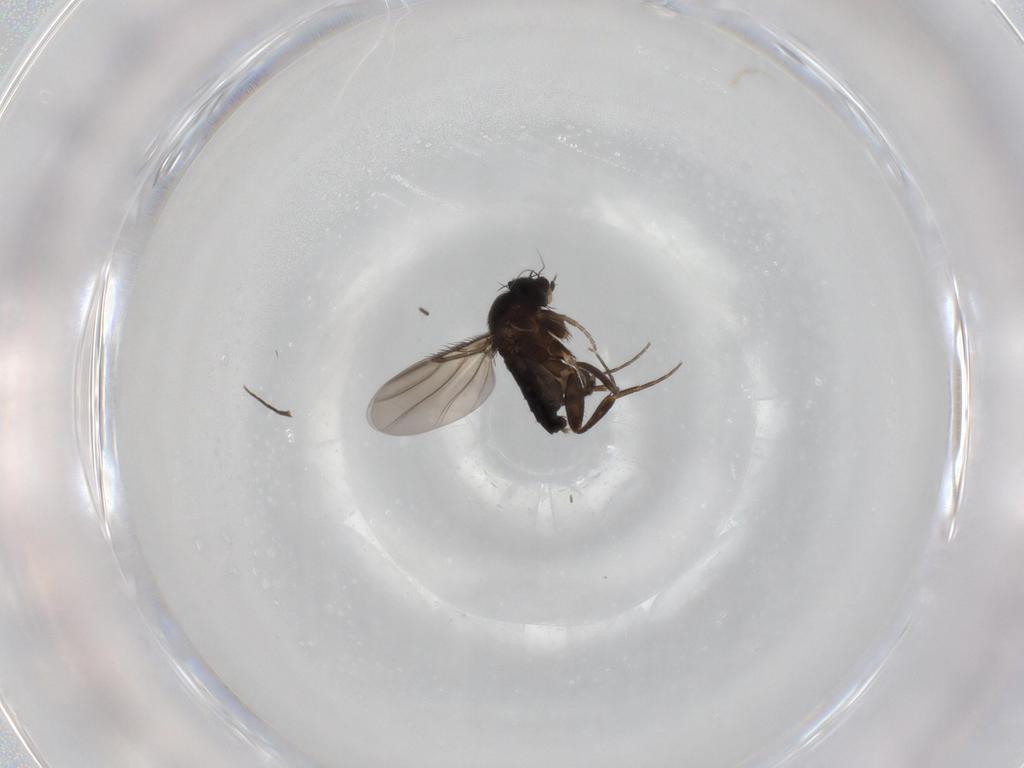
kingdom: Animalia
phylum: Arthropoda
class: Insecta
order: Diptera
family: Phoridae
